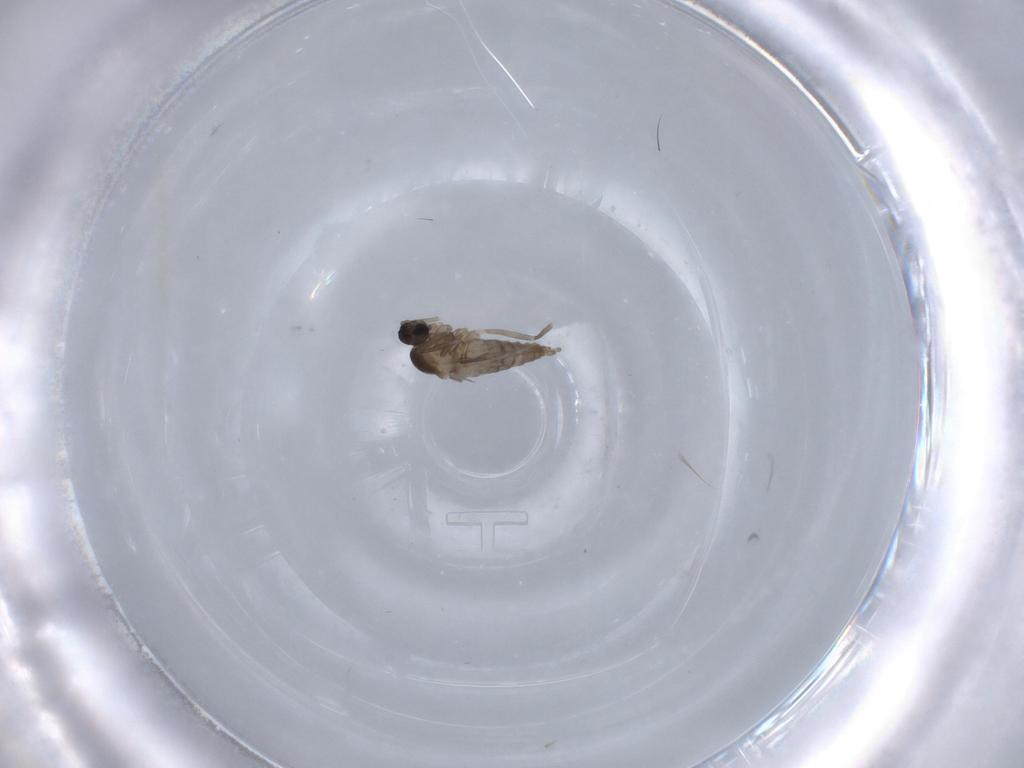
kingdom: Animalia
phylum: Arthropoda
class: Insecta
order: Diptera
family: Cecidomyiidae
